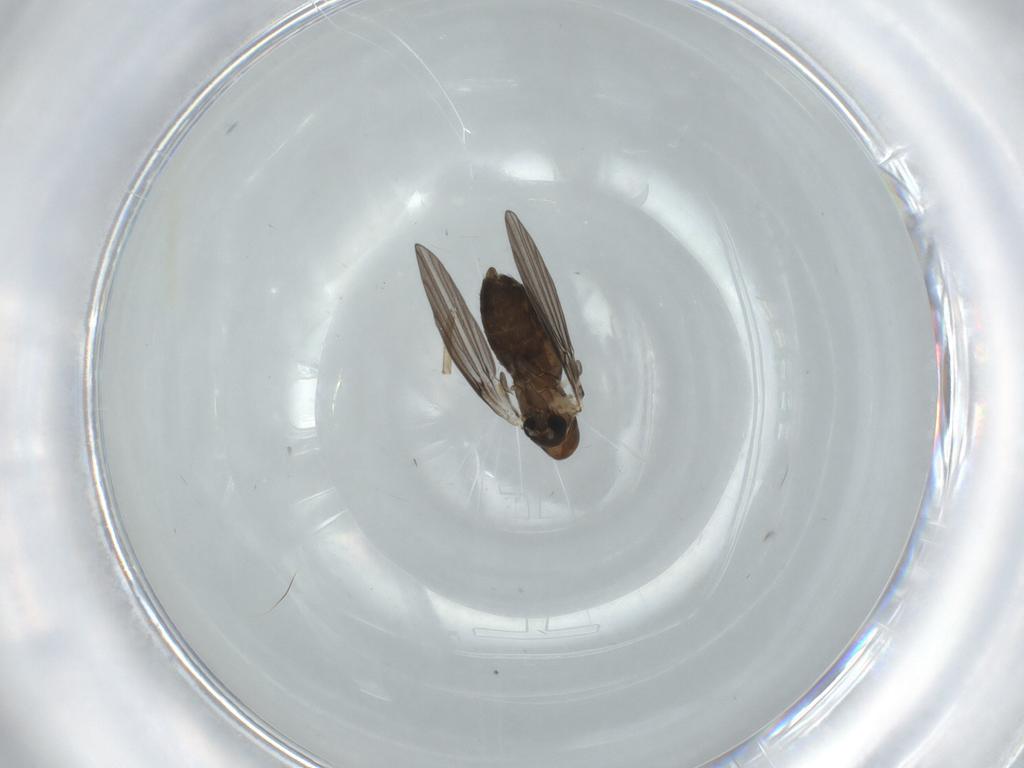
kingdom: Animalia
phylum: Arthropoda
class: Insecta
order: Diptera
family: Psychodidae
